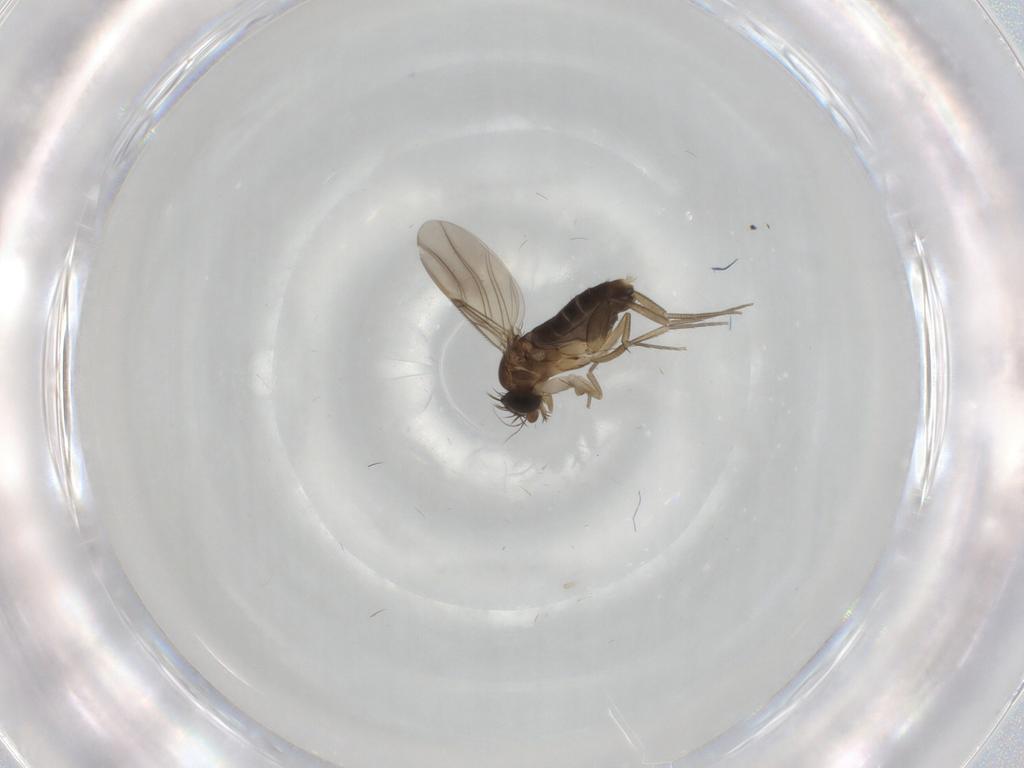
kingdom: Animalia
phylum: Arthropoda
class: Insecta
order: Diptera
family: Phoridae
